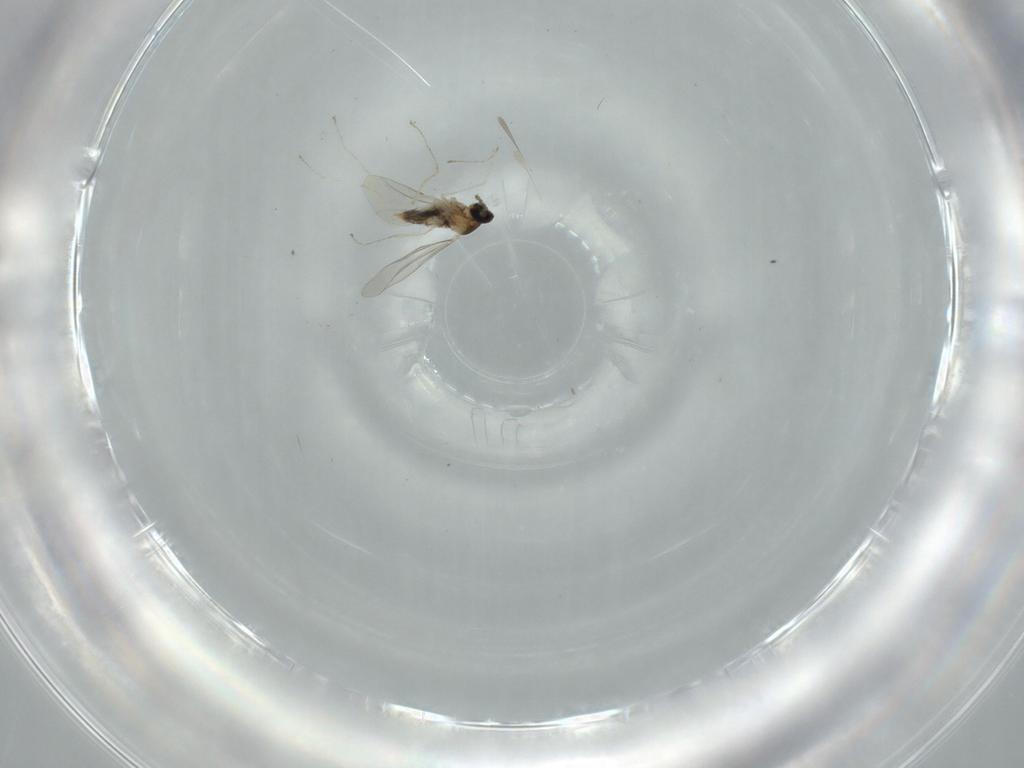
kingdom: Animalia
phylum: Arthropoda
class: Insecta
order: Diptera
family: Cecidomyiidae
